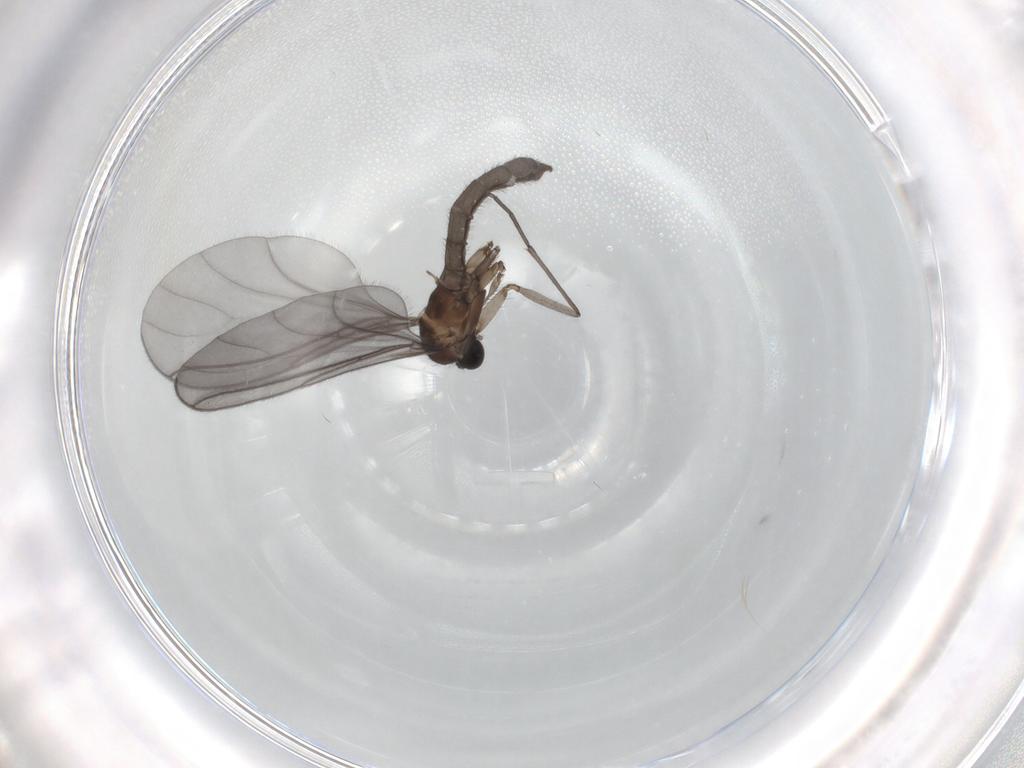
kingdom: Animalia
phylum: Arthropoda
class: Insecta
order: Diptera
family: Sciaridae
